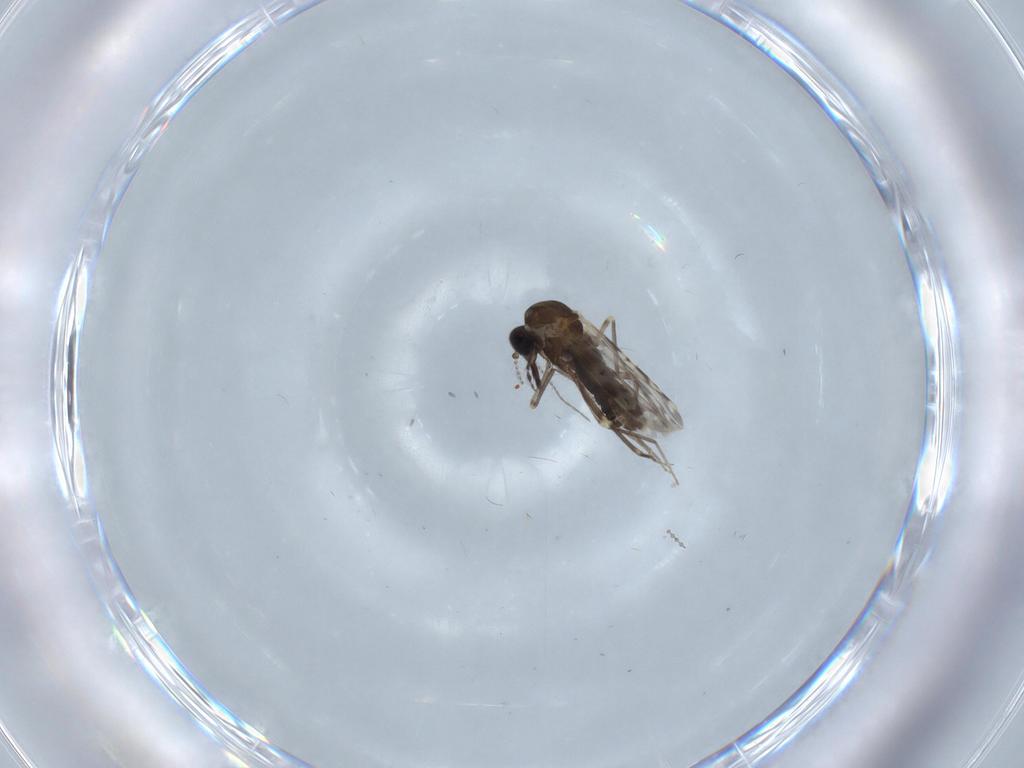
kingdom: Animalia
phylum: Arthropoda
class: Insecta
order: Diptera
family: Ceratopogonidae
